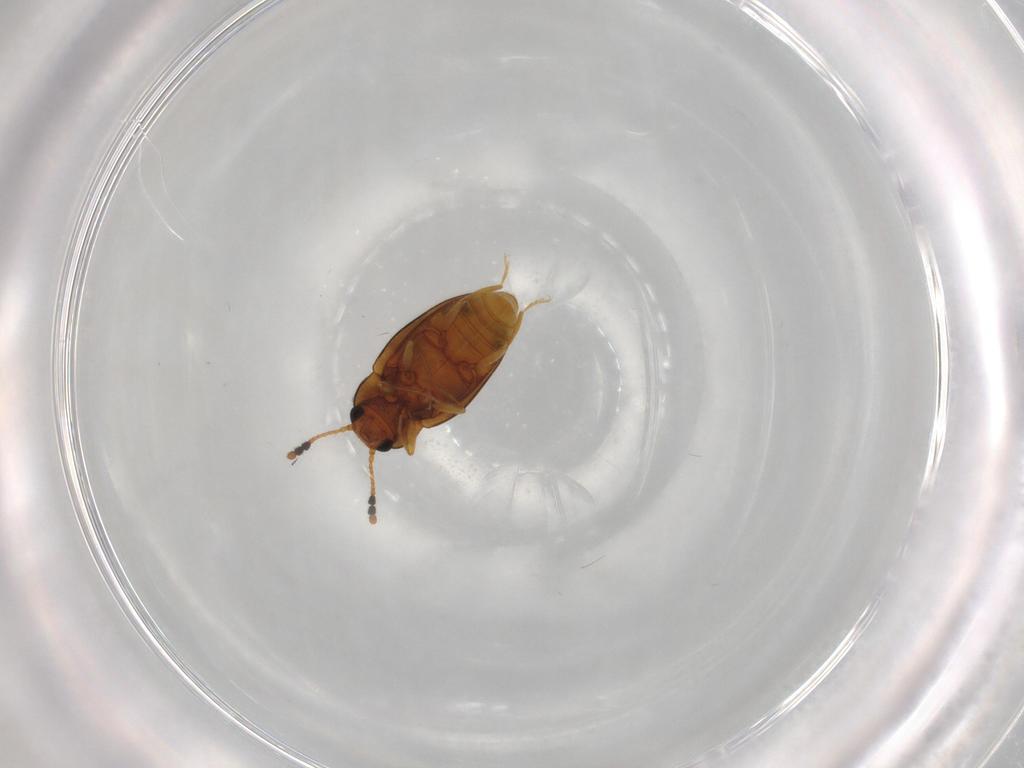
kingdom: Animalia
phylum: Arthropoda
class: Insecta
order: Coleoptera
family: Erotylidae
